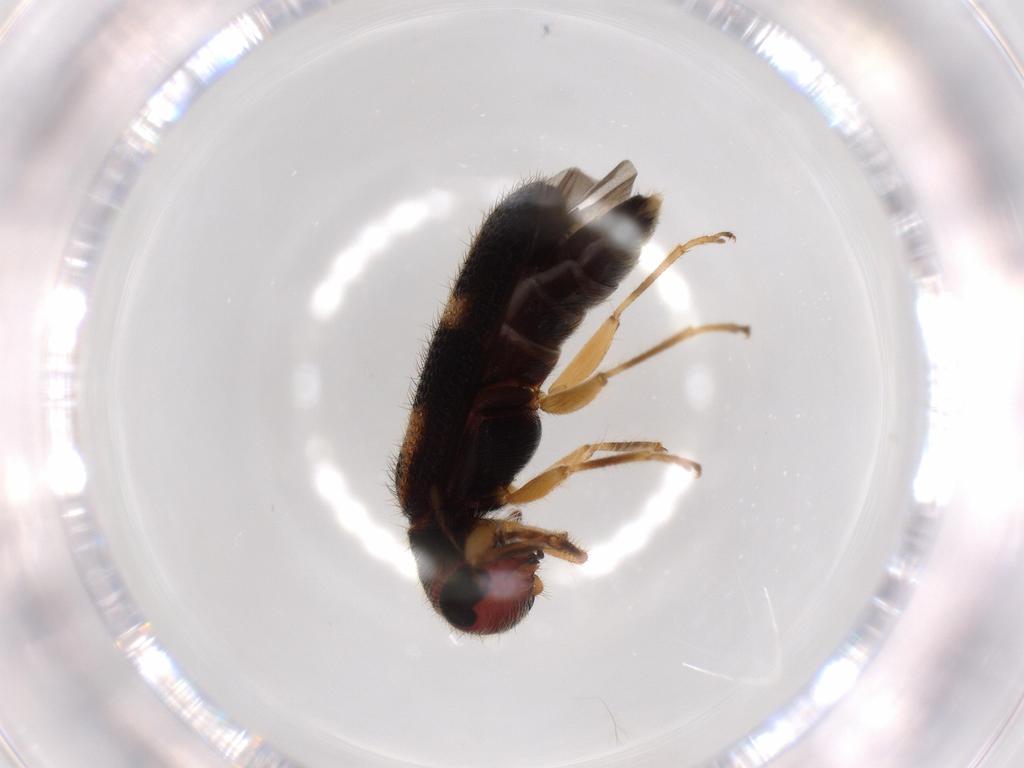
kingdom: Animalia
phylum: Arthropoda
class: Insecta
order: Coleoptera
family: Cleridae
